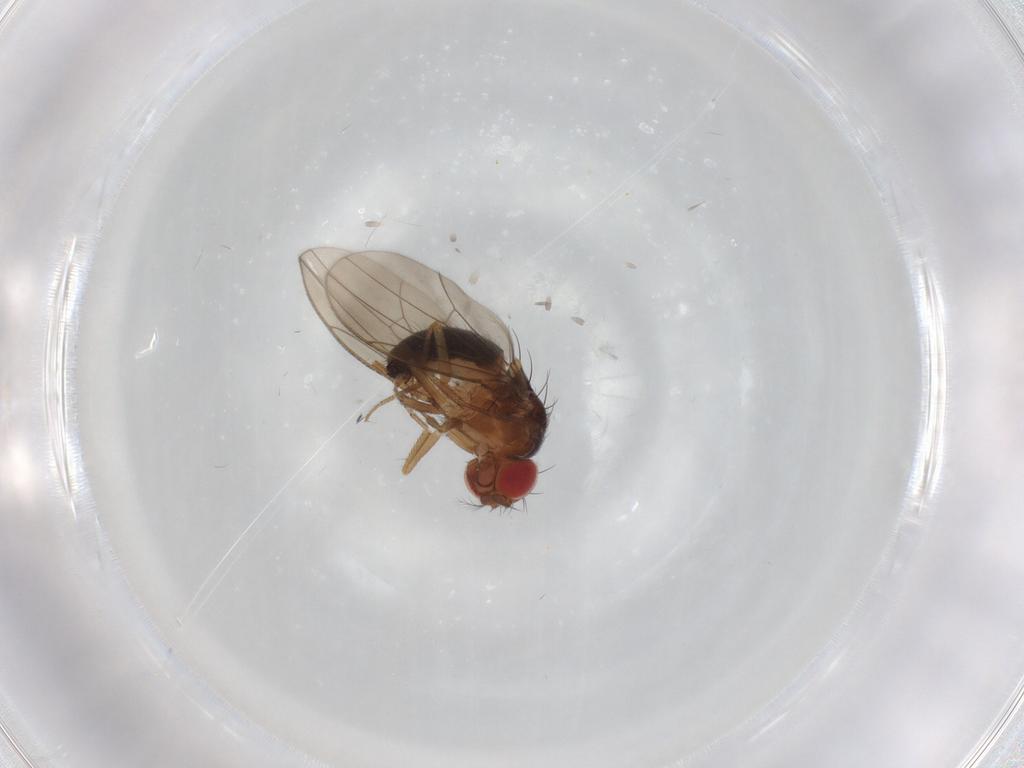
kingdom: Animalia
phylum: Arthropoda
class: Insecta
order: Diptera
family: Drosophilidae
